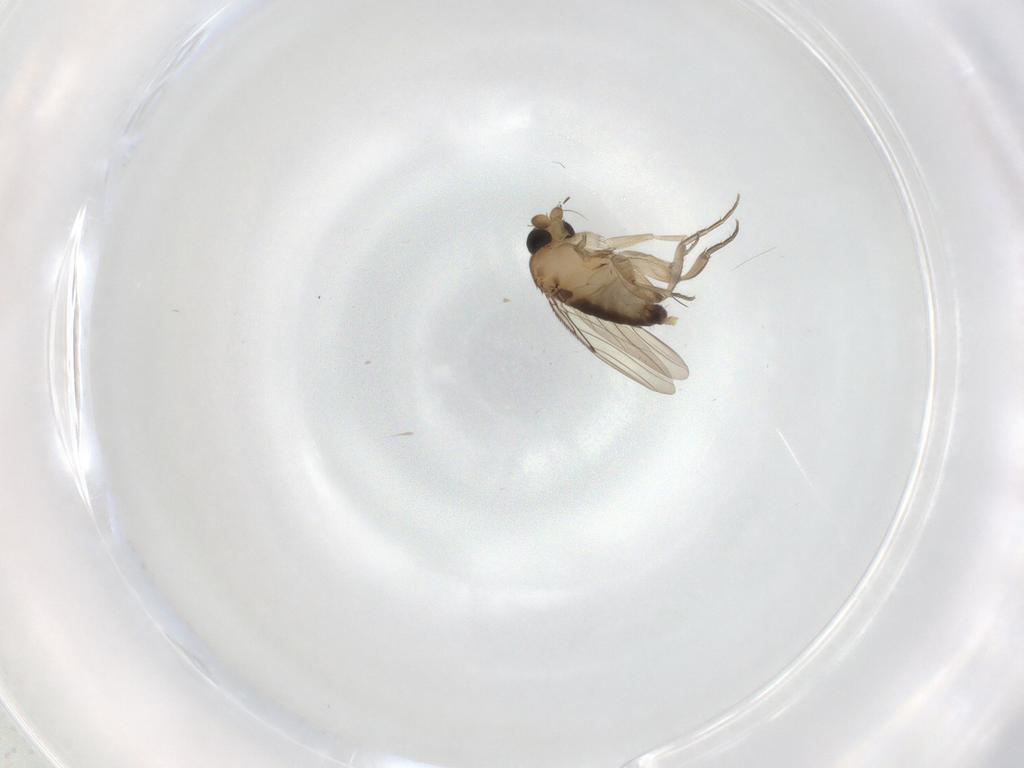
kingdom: Animalia
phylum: Arthropoda
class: Insecta
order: Diptera
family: Phoridae
